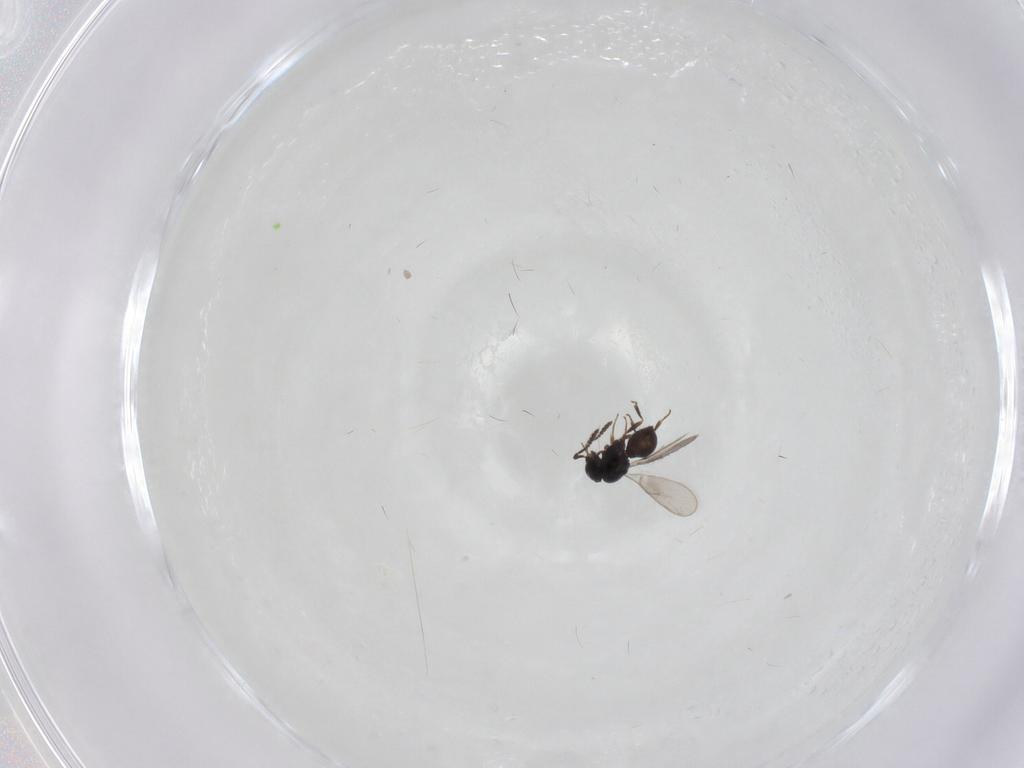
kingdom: Animalia
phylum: Arthropoda
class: Insecta
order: Hymenoptera
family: Scelionidae
